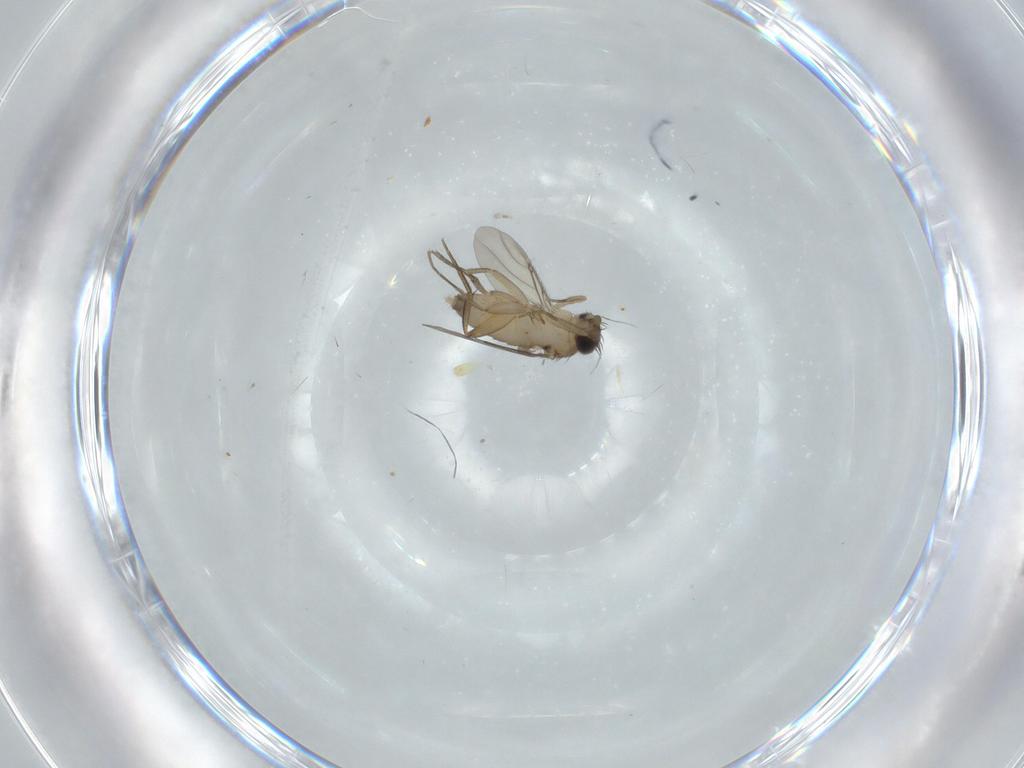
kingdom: Animalia
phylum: Arthropoda
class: Insecta
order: Diptera
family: Phoridae
